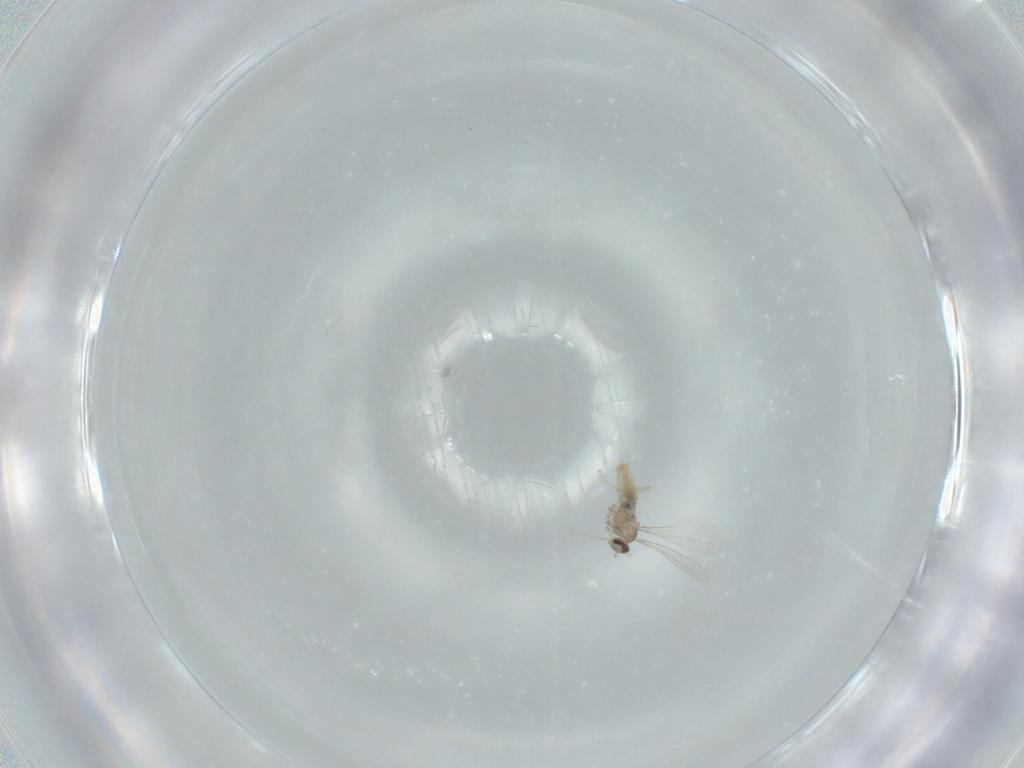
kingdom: Animalia
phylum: Arthropoda
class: Insecta
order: Diptera
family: Cecidomyiidae
